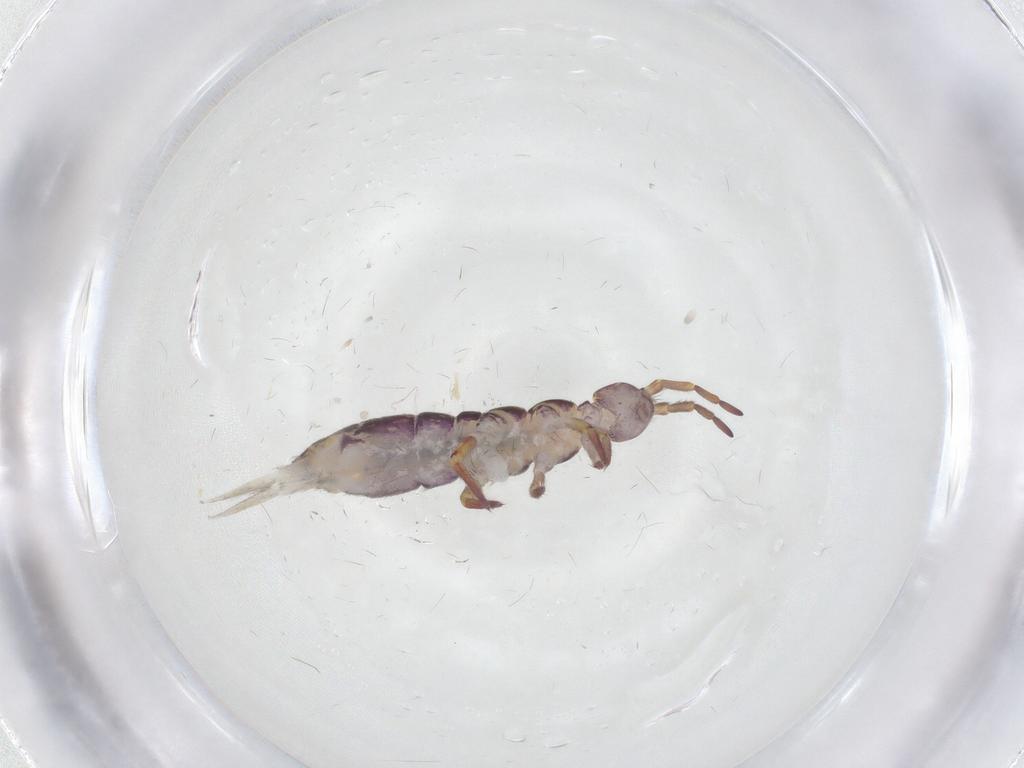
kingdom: Animalia
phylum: Arthropoda
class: Collembola
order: Entomobryomorpha
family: Isotomidae
